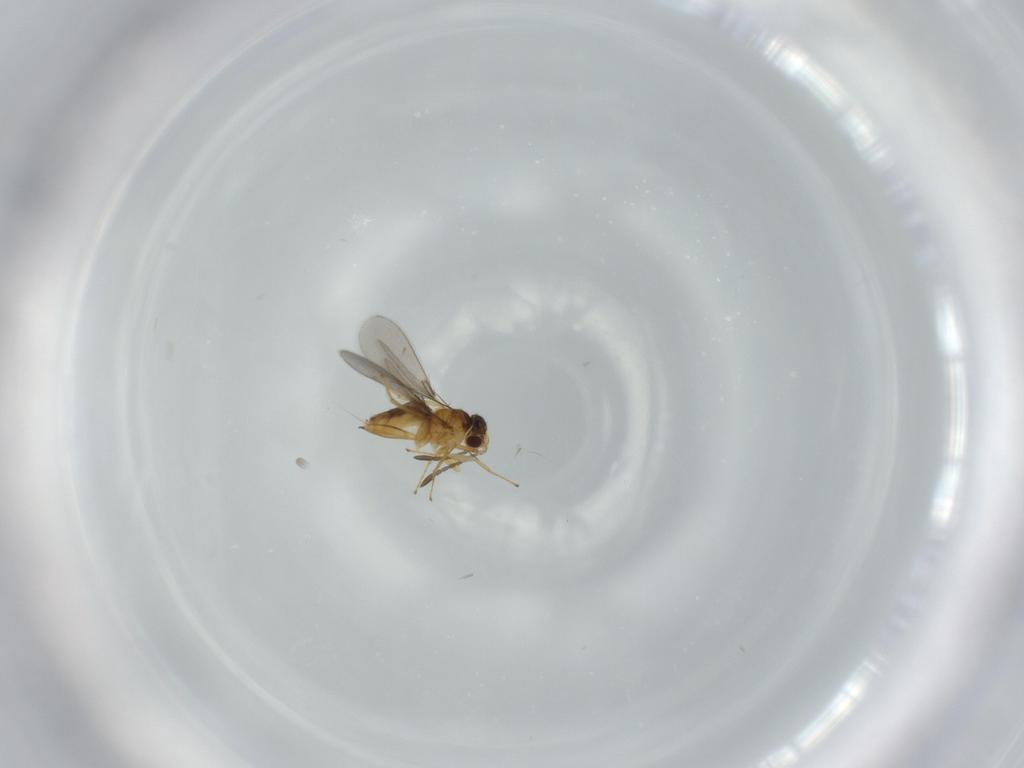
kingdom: Animalia
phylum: Arthropoda
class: Insecta
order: Hymenoptera
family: Mymaridae
